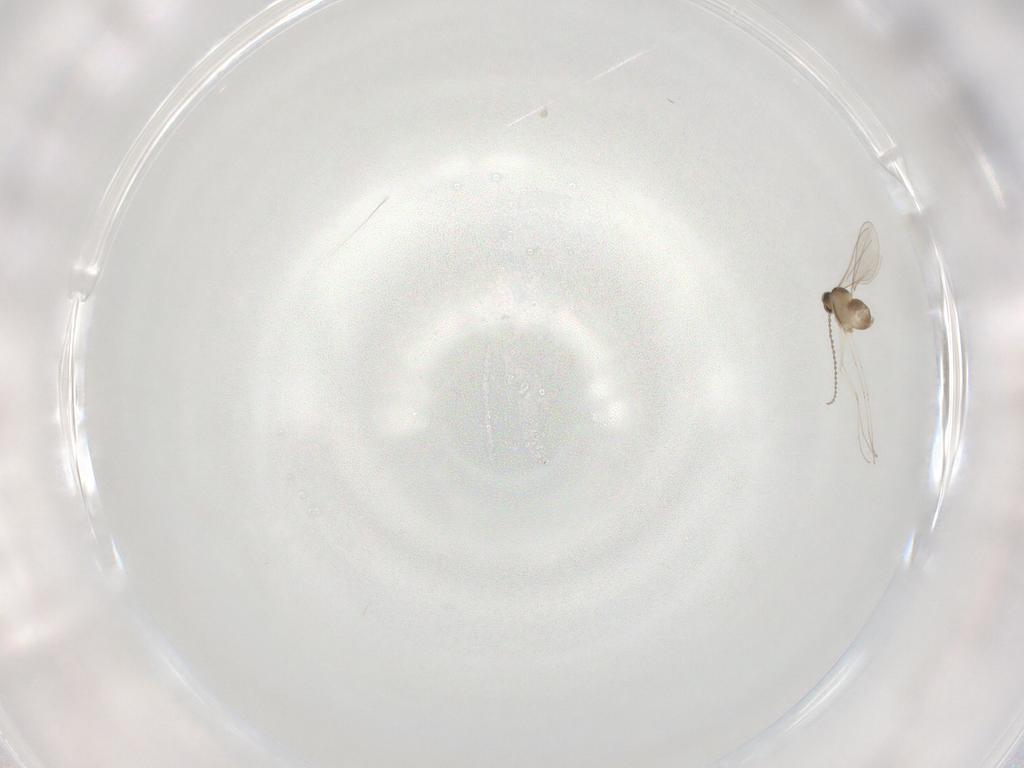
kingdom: Animalia
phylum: Arthropoda
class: Insecta
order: Diptera
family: Cecidomyiidae
